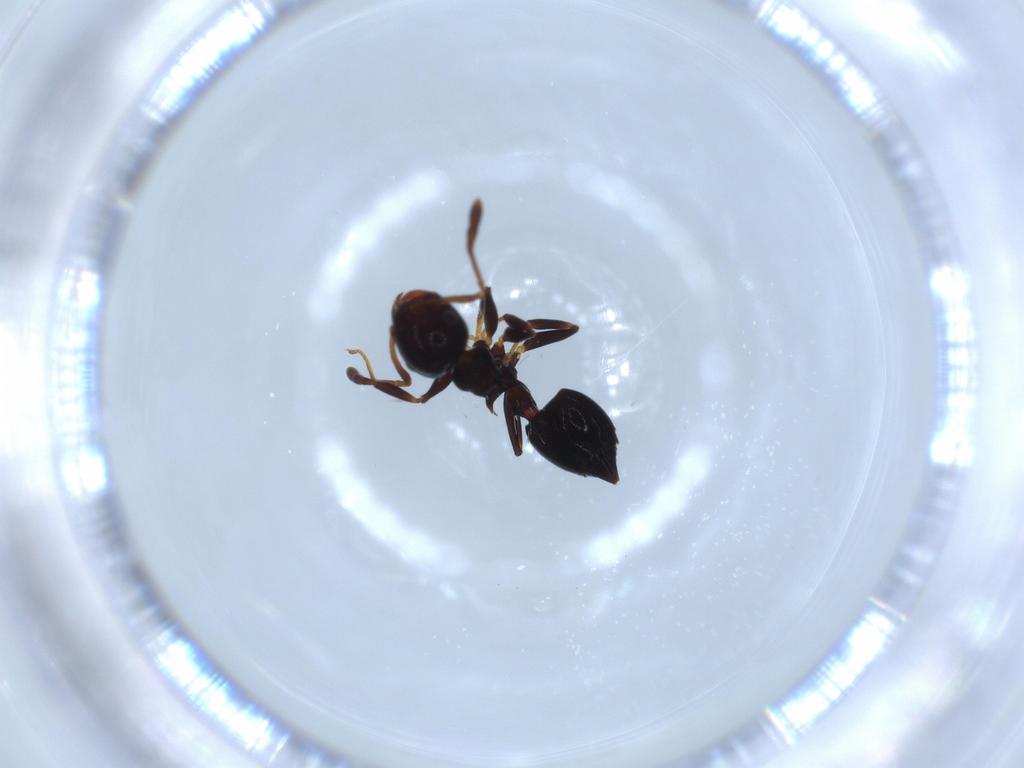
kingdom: Animalia
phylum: Arthropoda
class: Insecta
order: Hymenoptera
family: Formicidae
